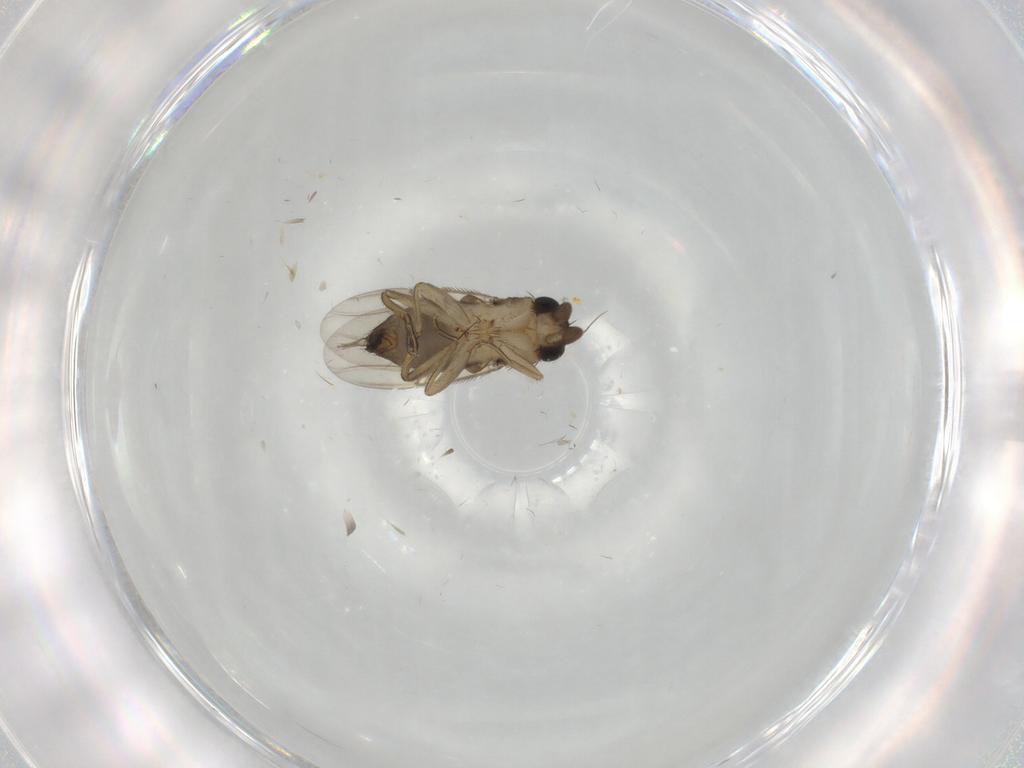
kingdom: Animalia
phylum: Arthropoda
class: Insecta
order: Diptera
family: Phoridae
